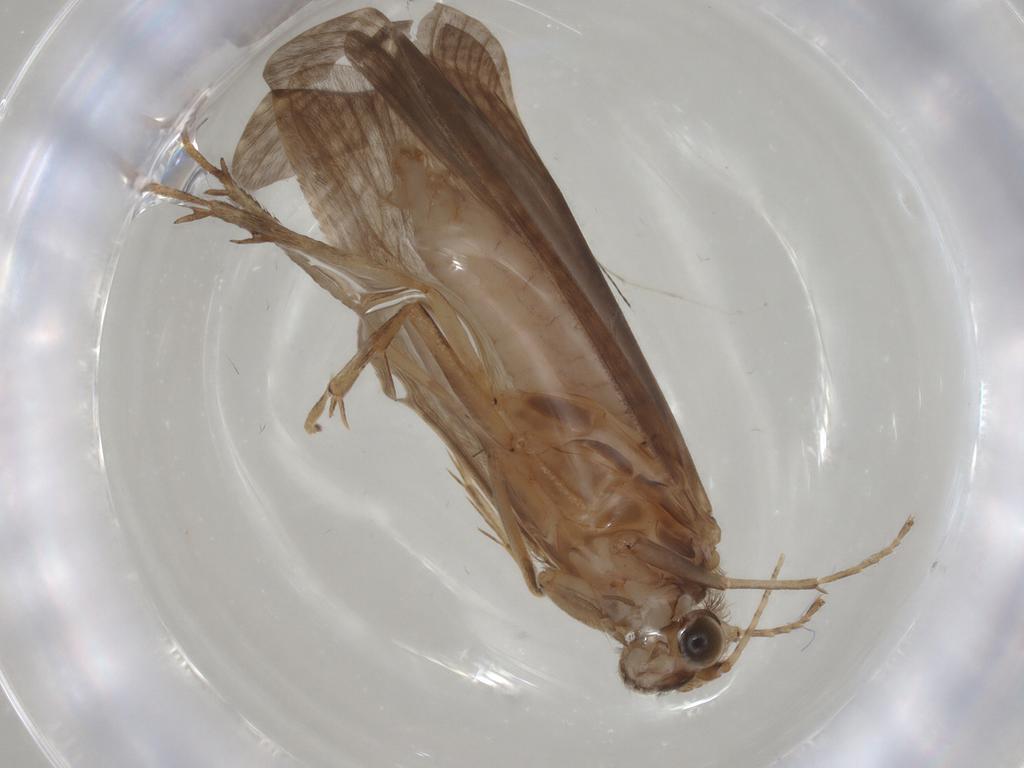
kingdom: Animalia
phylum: Arthropoda
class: Insecta
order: Trichoptera
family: Hydropsychidae
